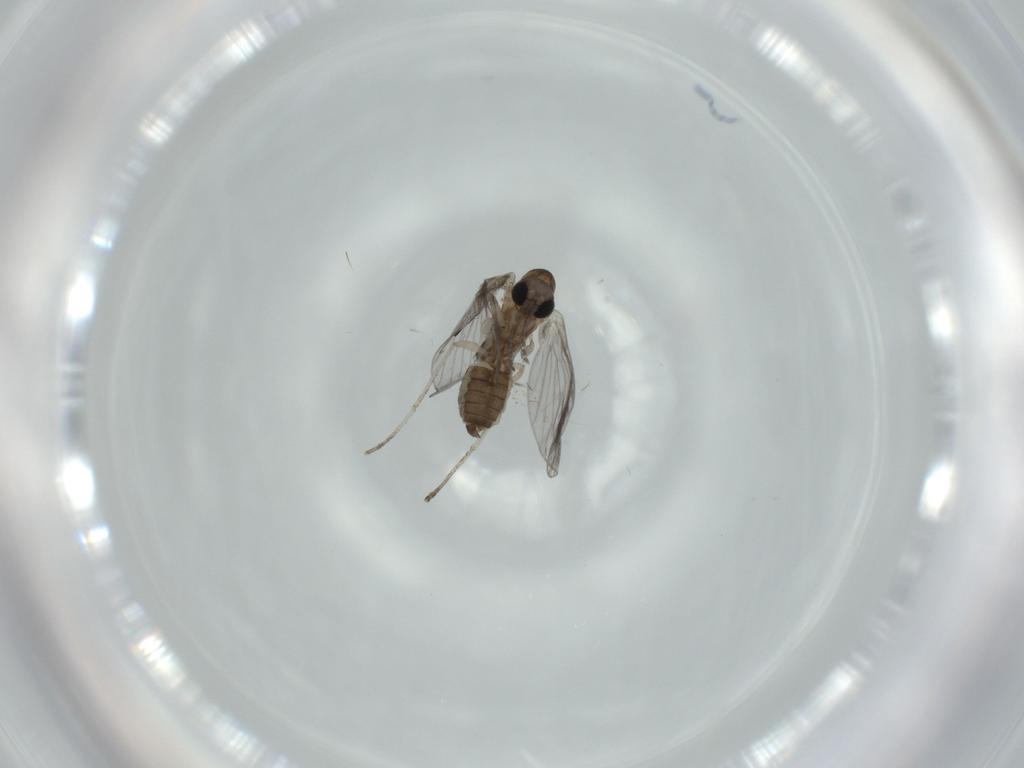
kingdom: Animalia
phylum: Arthropoda
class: Insecta
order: Diptera
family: Psychodidae
